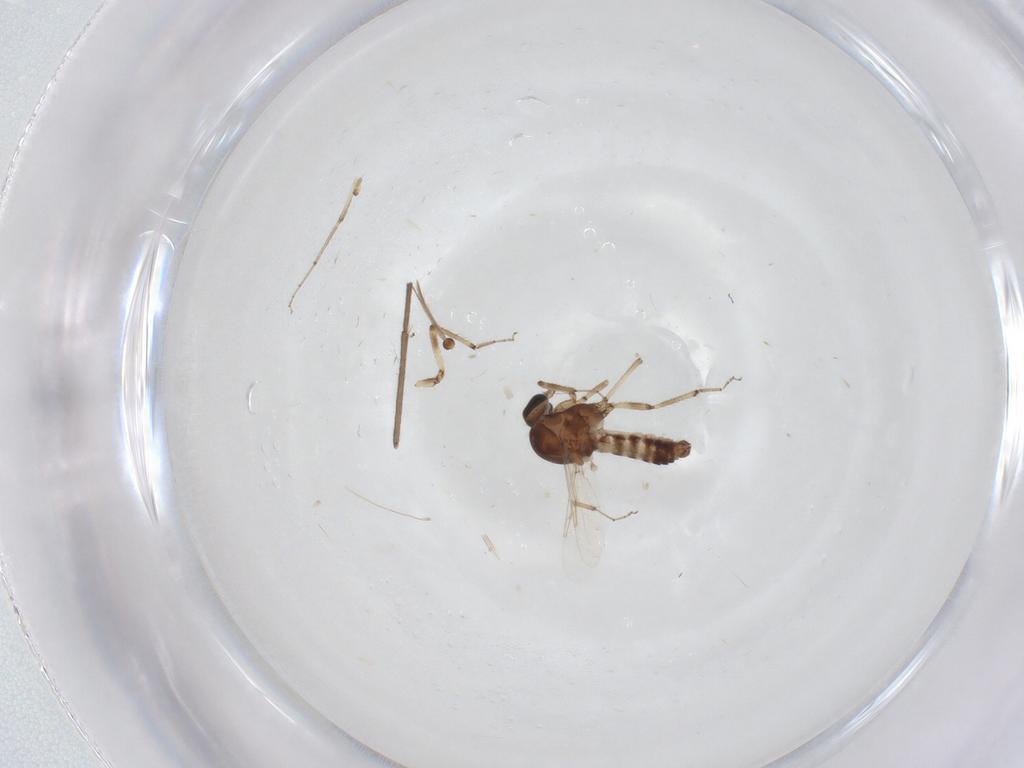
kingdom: Animalia
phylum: Arthropoda
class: Insecta
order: Diptera
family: Ceratopogonidae
